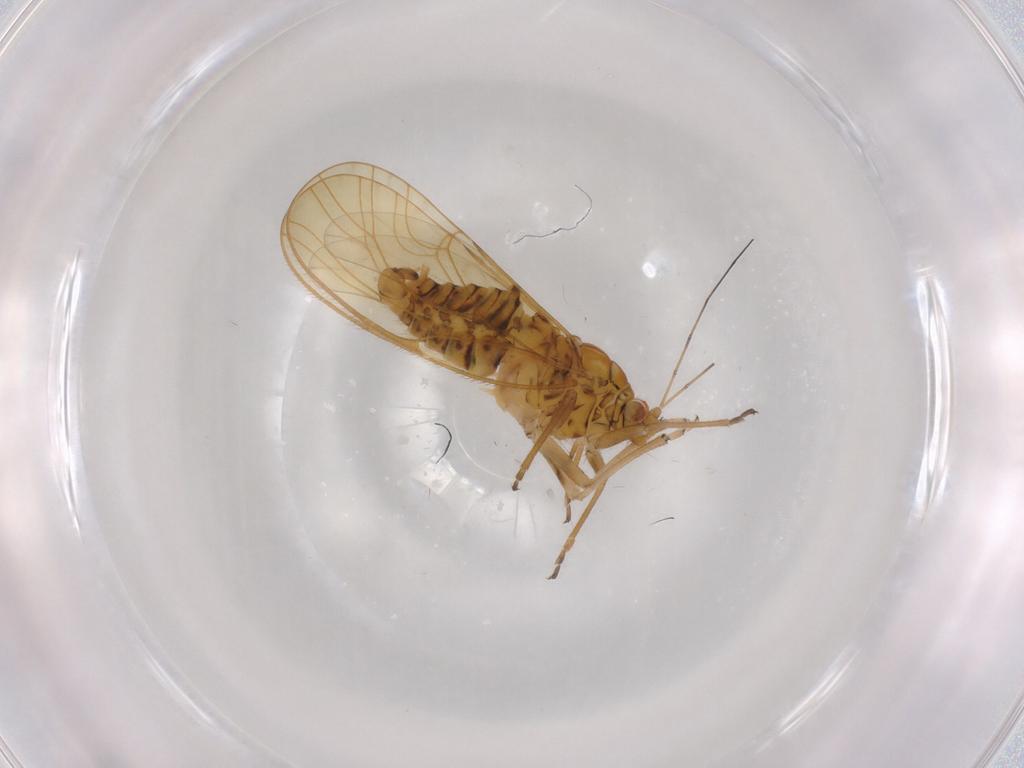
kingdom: Animalia
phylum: Arthropoda
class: Insecta
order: Hemiptera
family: Psyllidae
